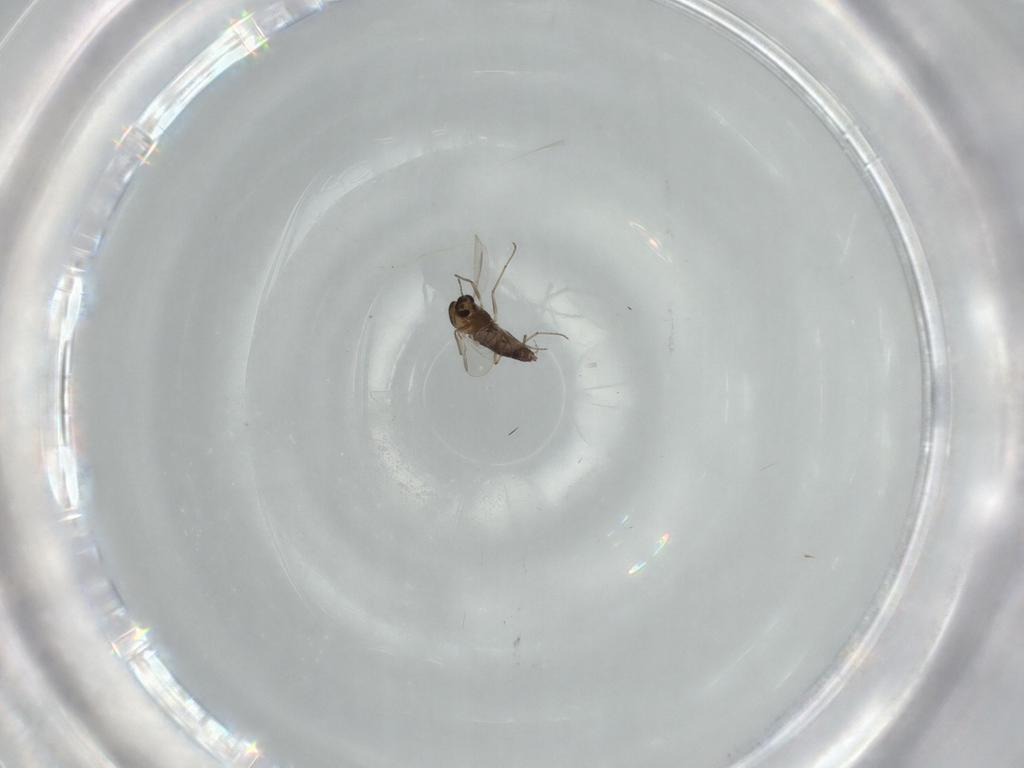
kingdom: Animalia
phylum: Arthropoda
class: Insecta
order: Diptera
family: Chironomidae
